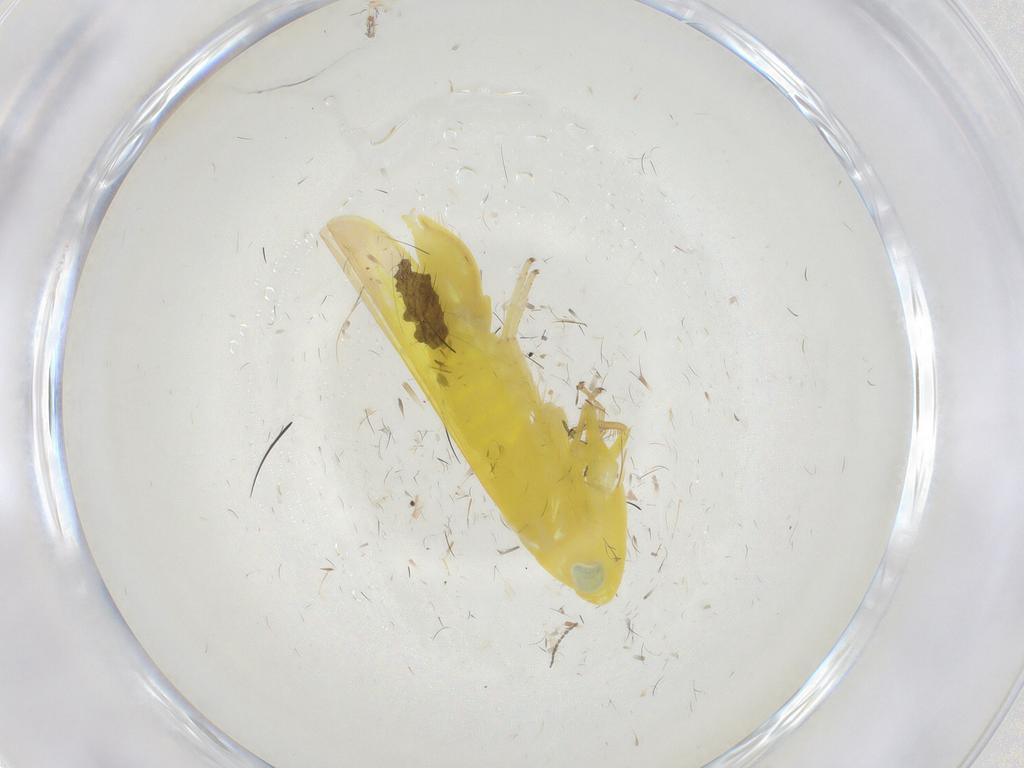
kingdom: Animalia
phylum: Arthropoda
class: Insecta
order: Hemiptera
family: Cicadellidae
